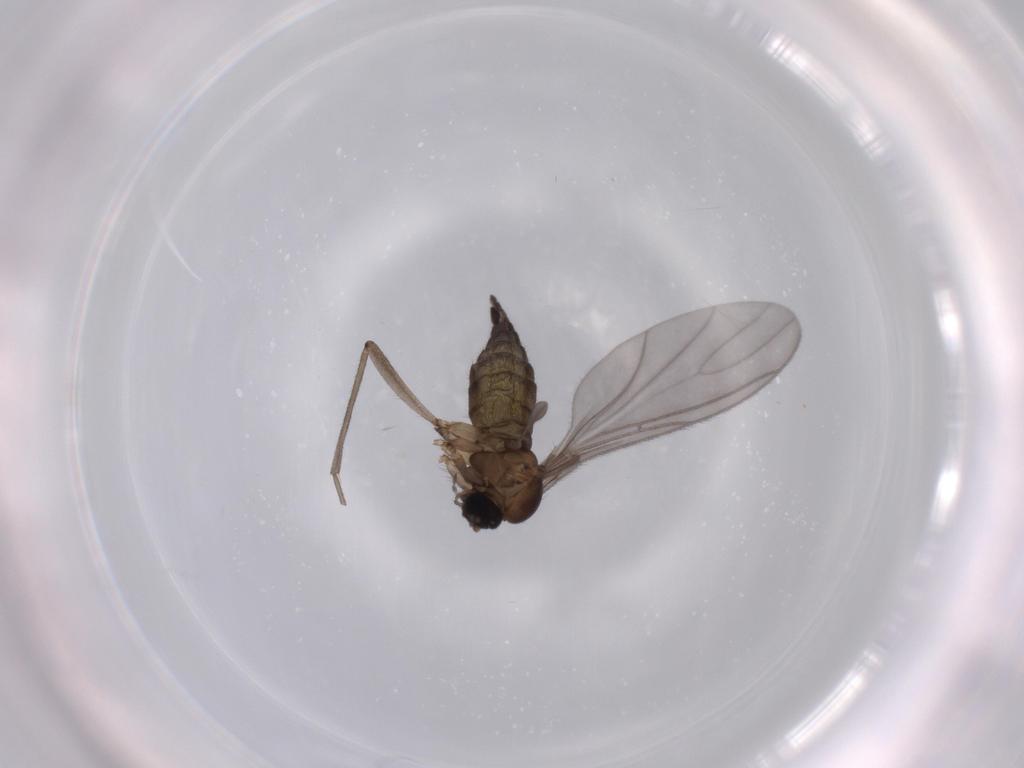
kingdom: Animalia
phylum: Arthropoda
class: Insecta
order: Diptera
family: Sciaridae
